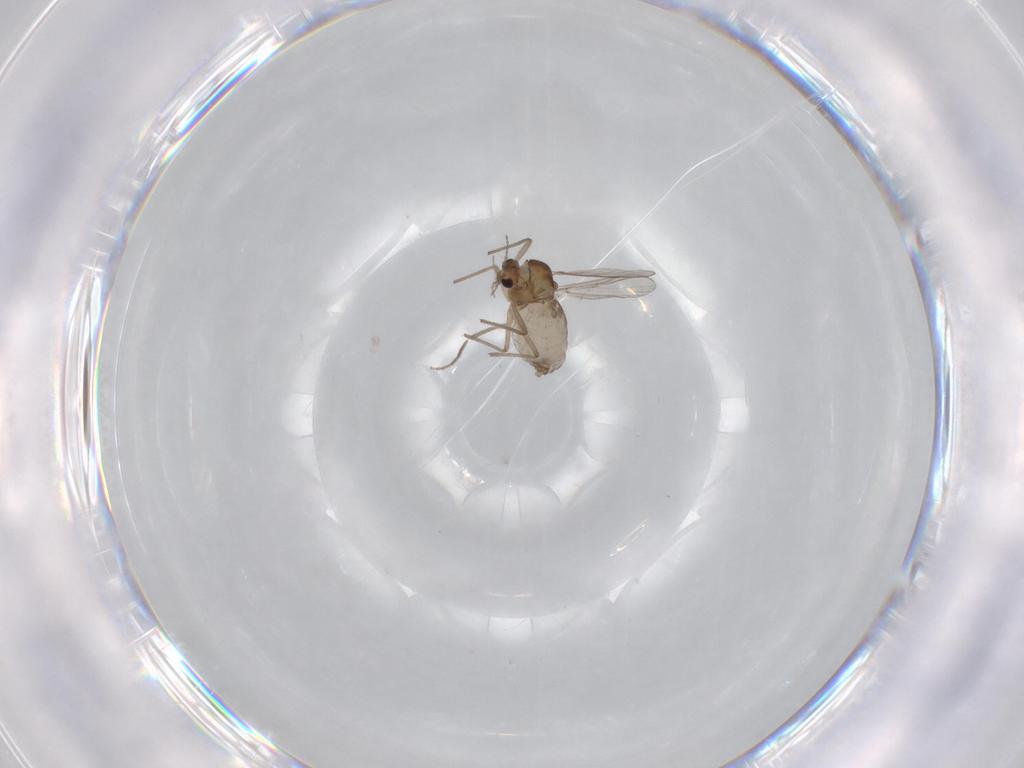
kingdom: Animalia
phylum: Arthropoda
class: Insecta
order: Diptera
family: Chironomidae
